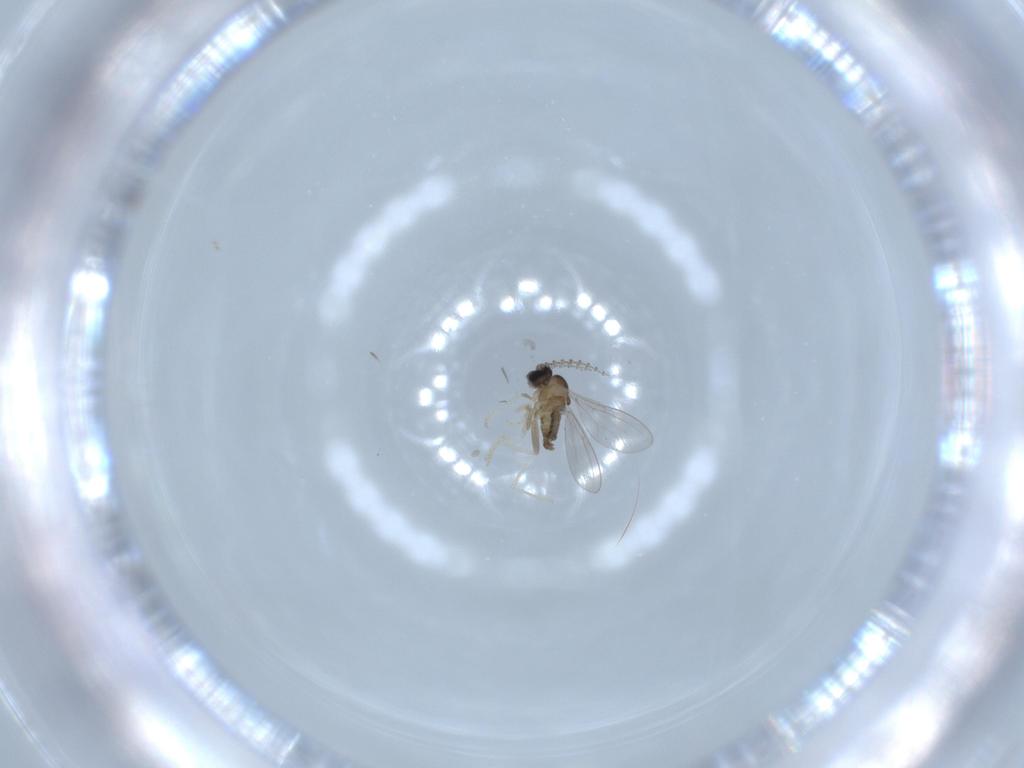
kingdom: Animalia
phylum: Arthropoda
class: Insecta
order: Diptera
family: Cecidomyiidae
